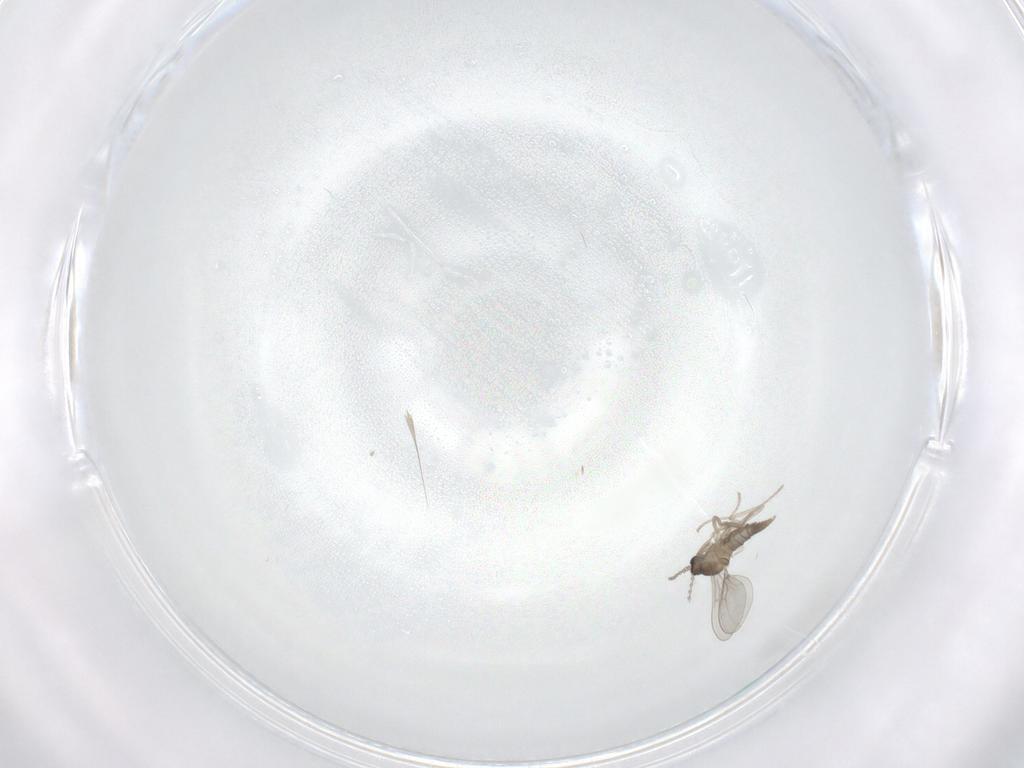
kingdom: Animalia
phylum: Arthropoda
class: Insecta
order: Diptera
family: Cecidomyiidae
